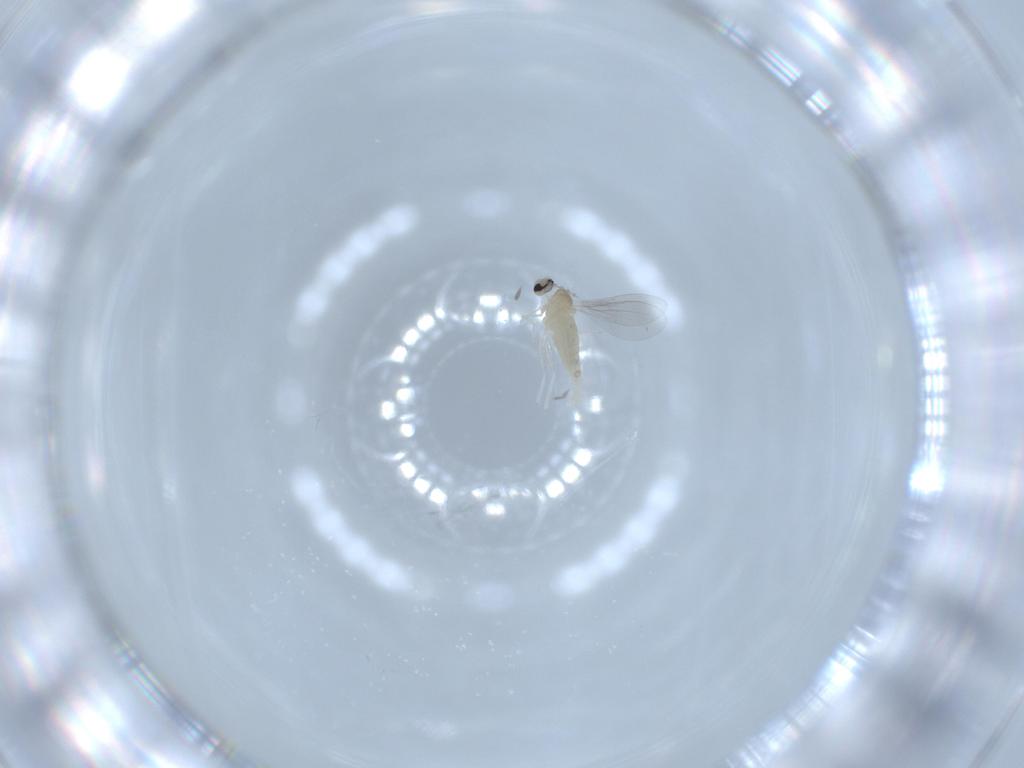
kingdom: Animalia
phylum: Arthropoda
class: Insecta
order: Diptera
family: Cecidomyiidae
